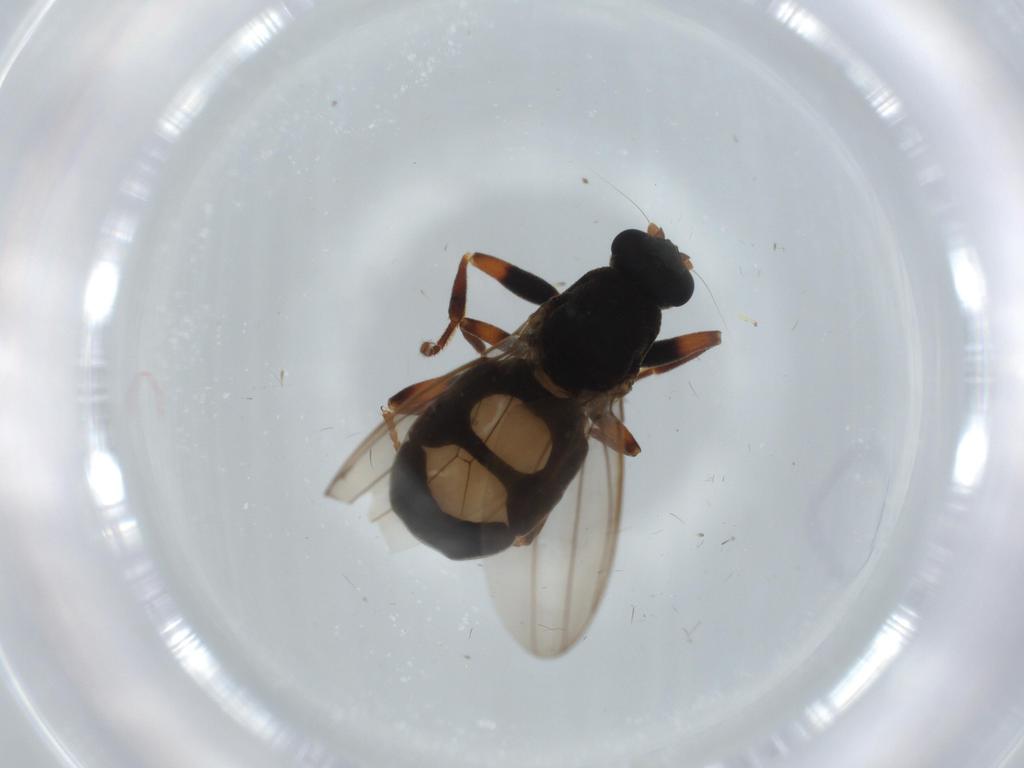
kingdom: Animalia
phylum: Arthropoda
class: Insecta
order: Diptera
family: Sphaeroceridae
